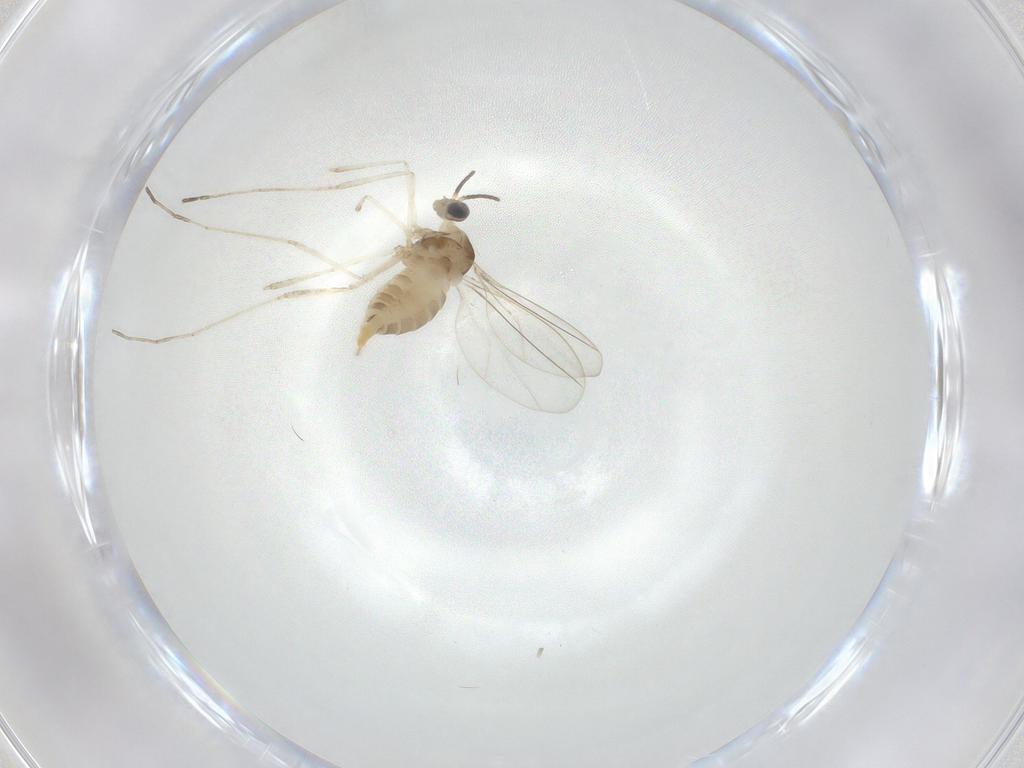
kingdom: Animalia
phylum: Arthropoda
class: Insecta
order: Diptera
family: Cecidomyiidae
